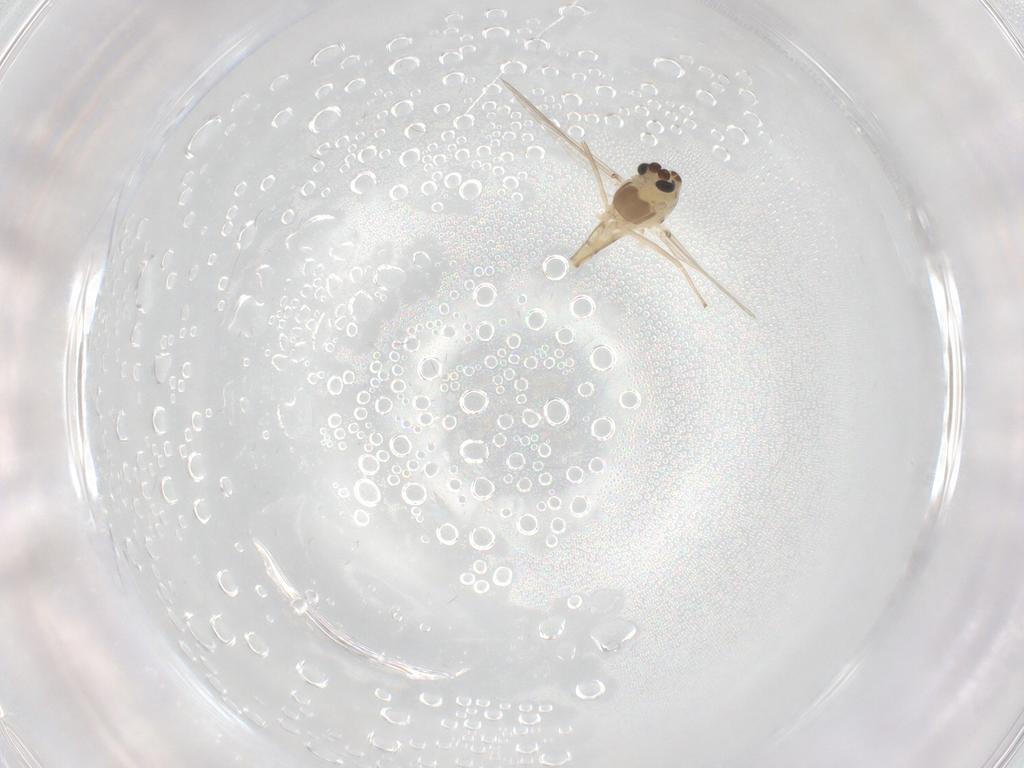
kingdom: Animalia
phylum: Arthropoda
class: Insecta
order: Diptera
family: Chironomidae
